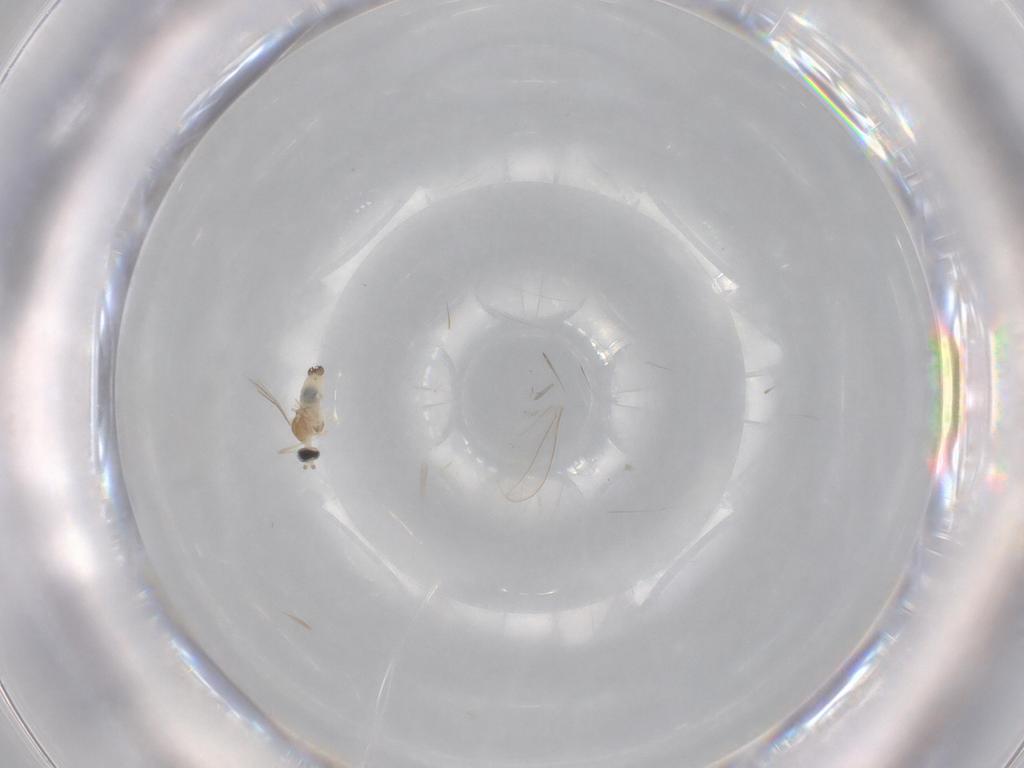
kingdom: Animalia
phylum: Arthropoda
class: Insecta
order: Diptera
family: Cecidomyiidae
